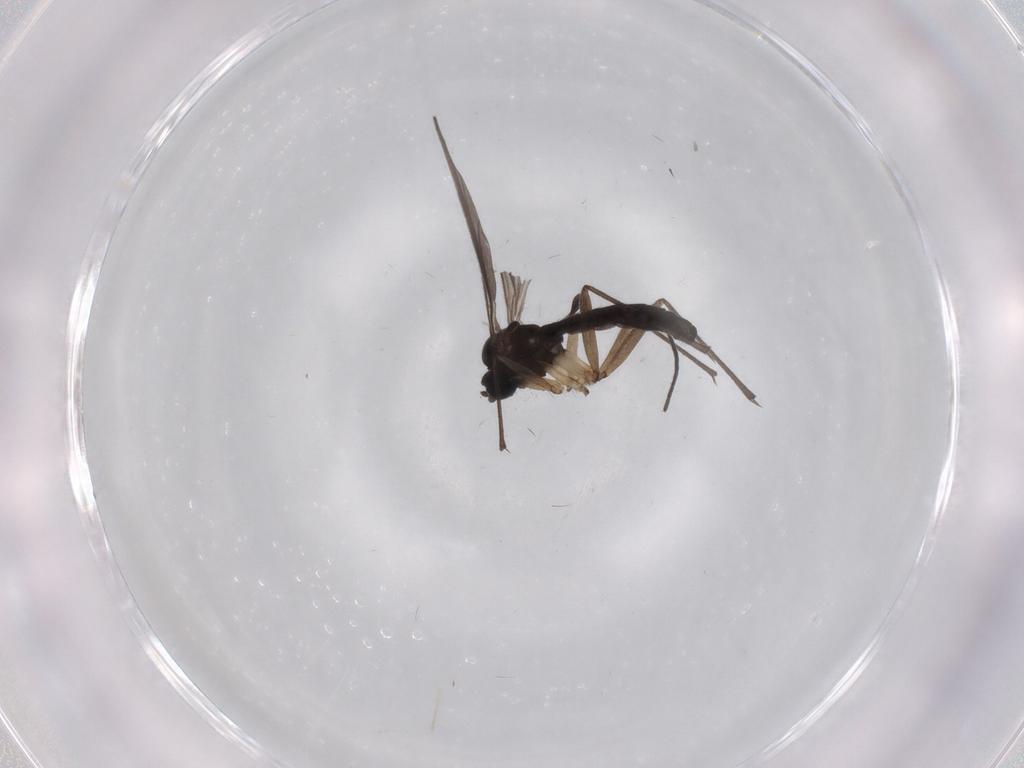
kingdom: Animalia
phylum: Arthropoda
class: Insecta
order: Diptera
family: Sciaridae
